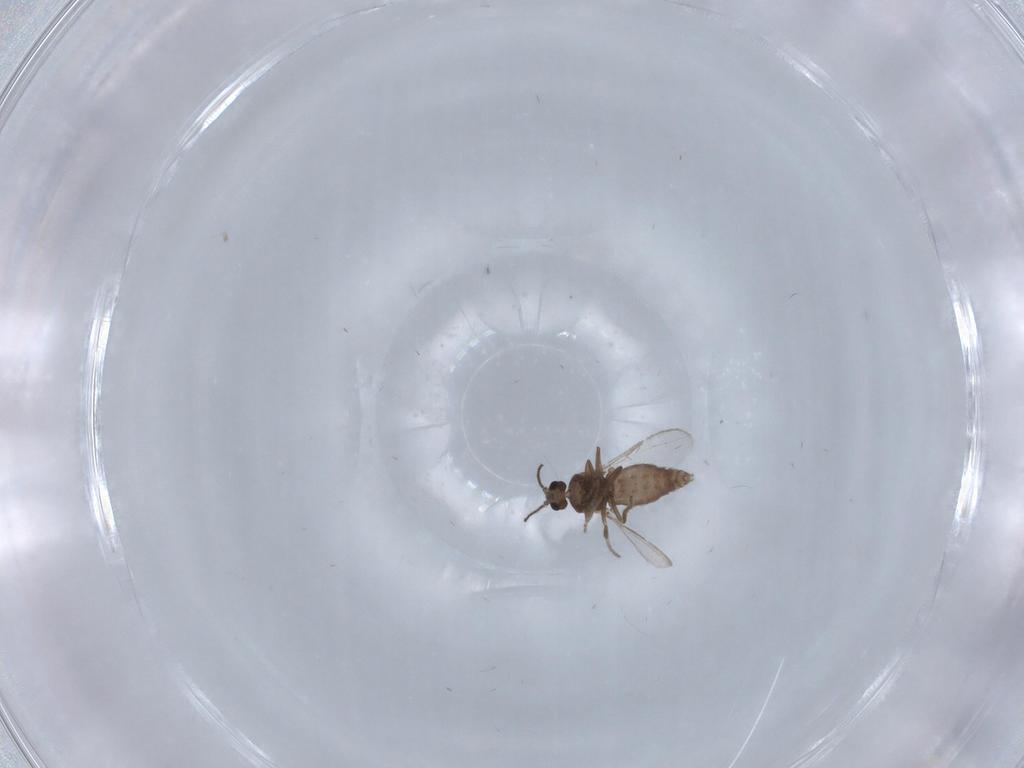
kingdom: Animalia
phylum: Arthropoda
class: Insecta
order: Diptera
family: Ceratopogonidae
